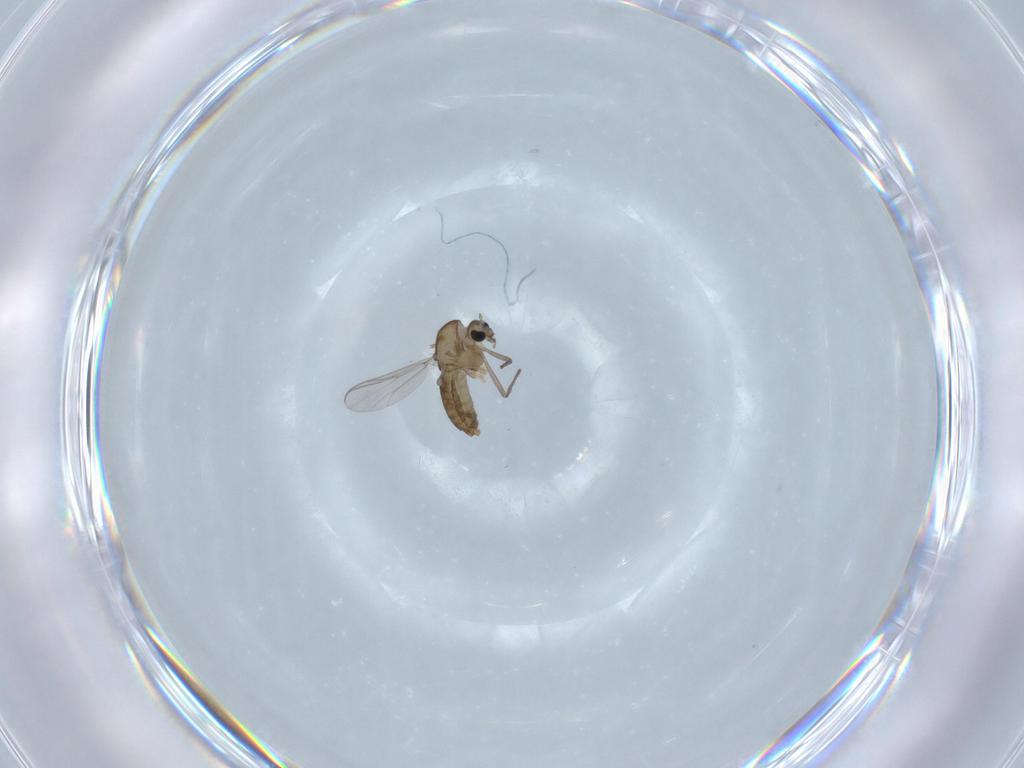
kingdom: Animalia
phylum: Arthropoda
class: Insecta
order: Diptera
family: Chironomidae
